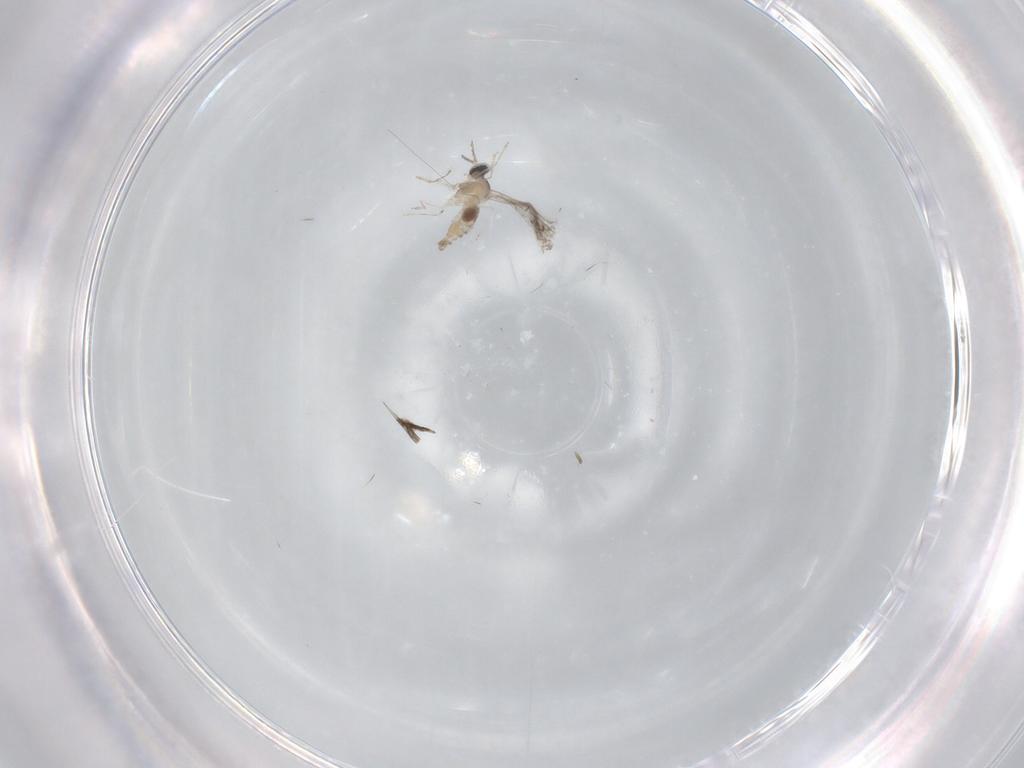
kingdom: Animalia
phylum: Arthropoda
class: Insecta
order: Diptera
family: Cecidomyiidae
